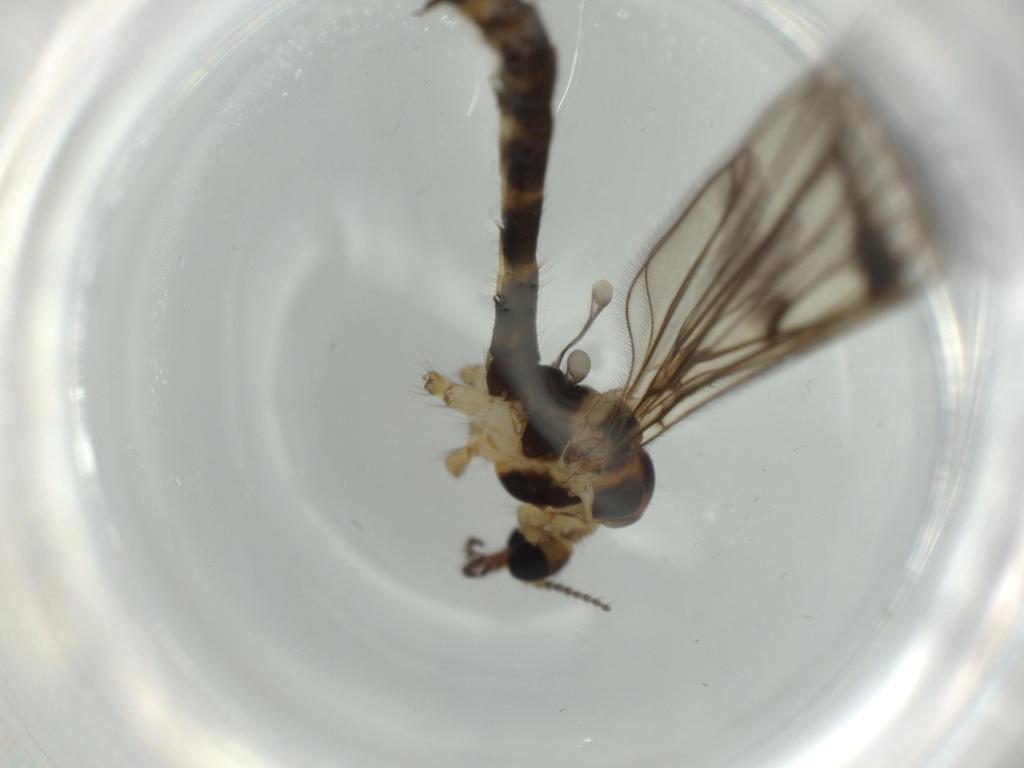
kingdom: Animalia
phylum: Arthropoda
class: Insecta
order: Diptera
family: Limoniidae
